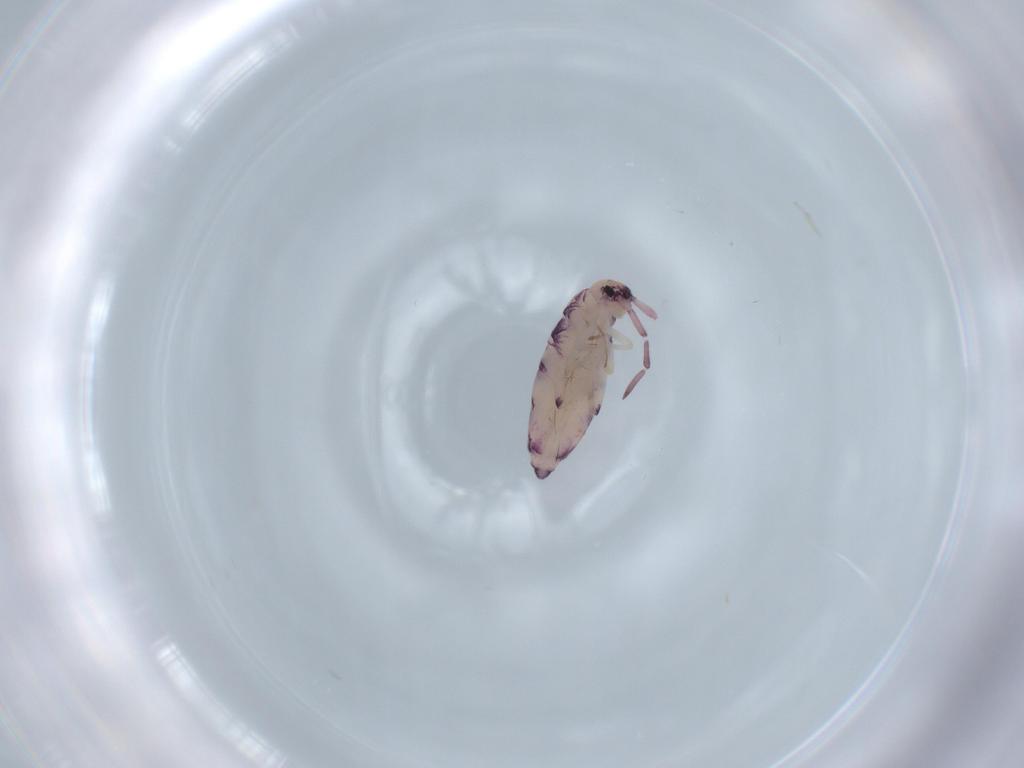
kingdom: Animalia
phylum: Arthropoda
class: Collembola
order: Entomobryomorpha
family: Entomobryidae
